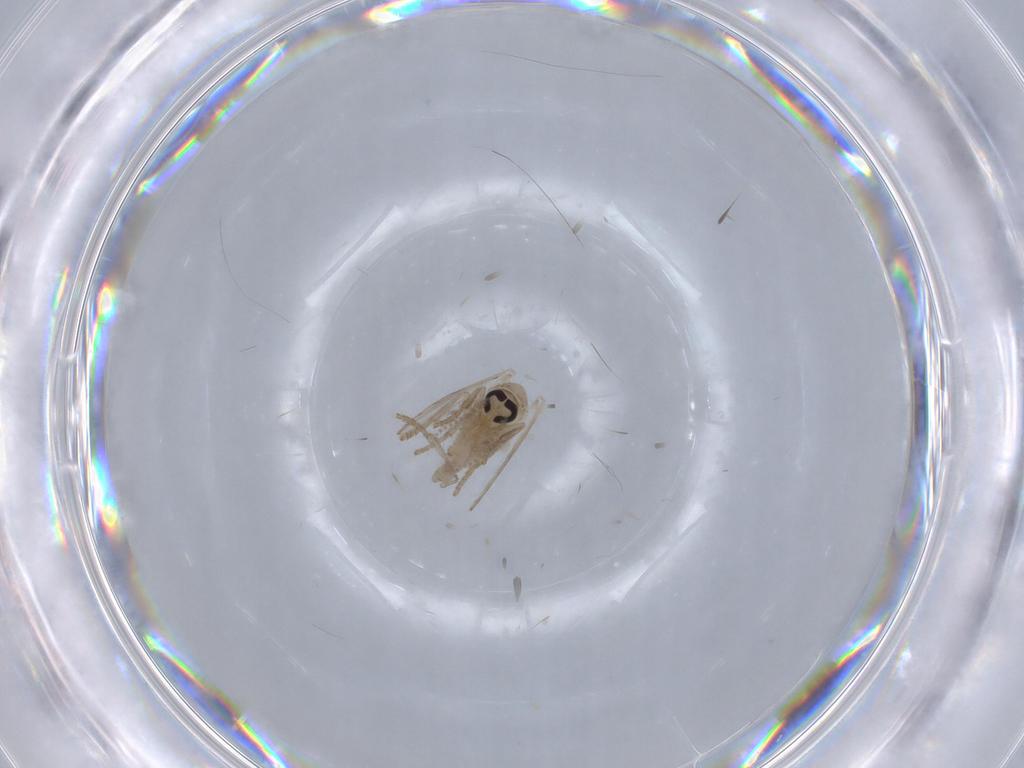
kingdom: Animalia
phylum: Arthropoda
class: Insecta
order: Diptera
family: Psychodidae
